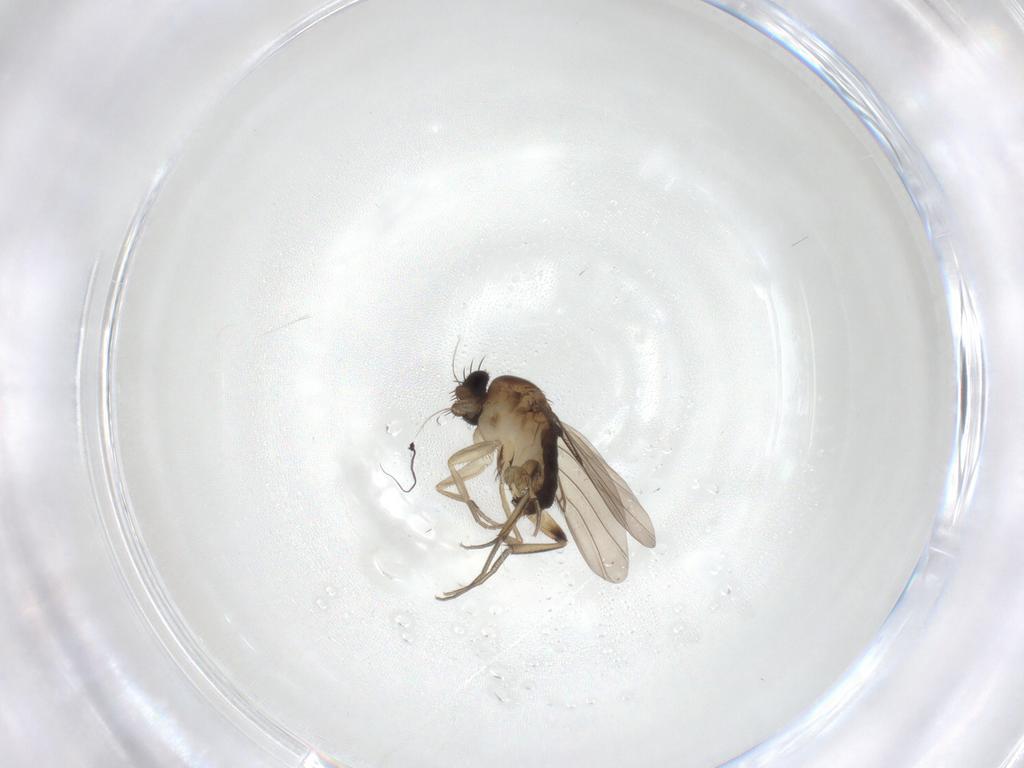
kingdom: Animalia
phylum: Arthropoda
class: Insecta
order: Diptera
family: Phoridae
